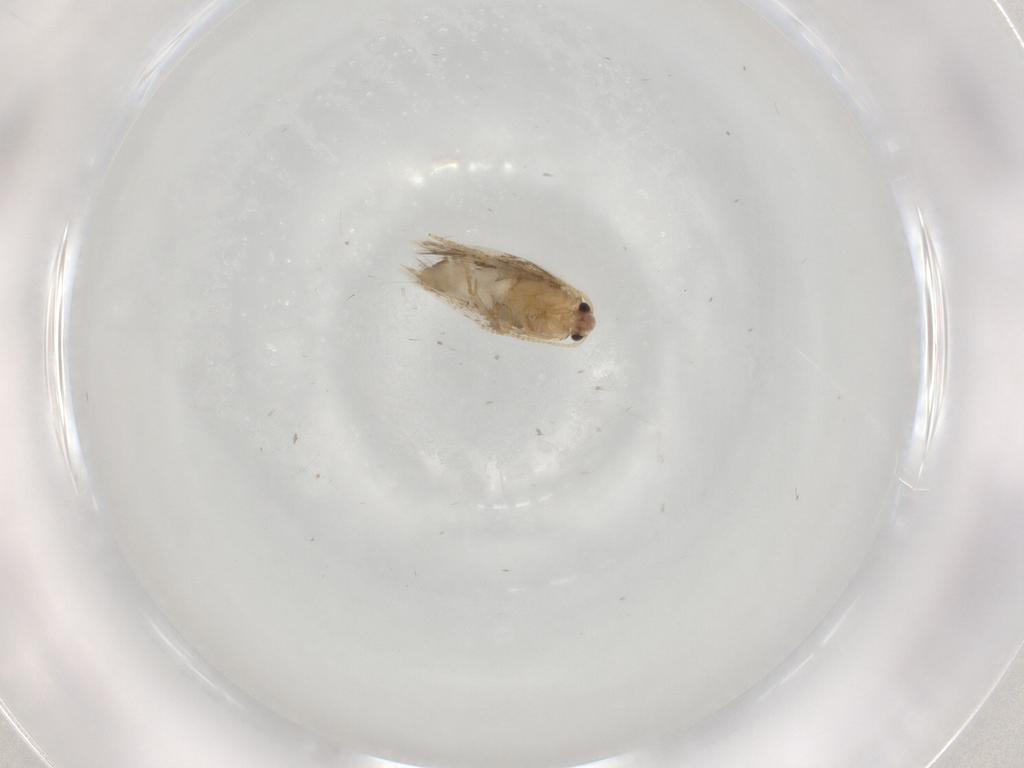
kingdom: Animalia
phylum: Arthropoda
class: Insecta
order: Lepidoptera
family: Nepticulidae
